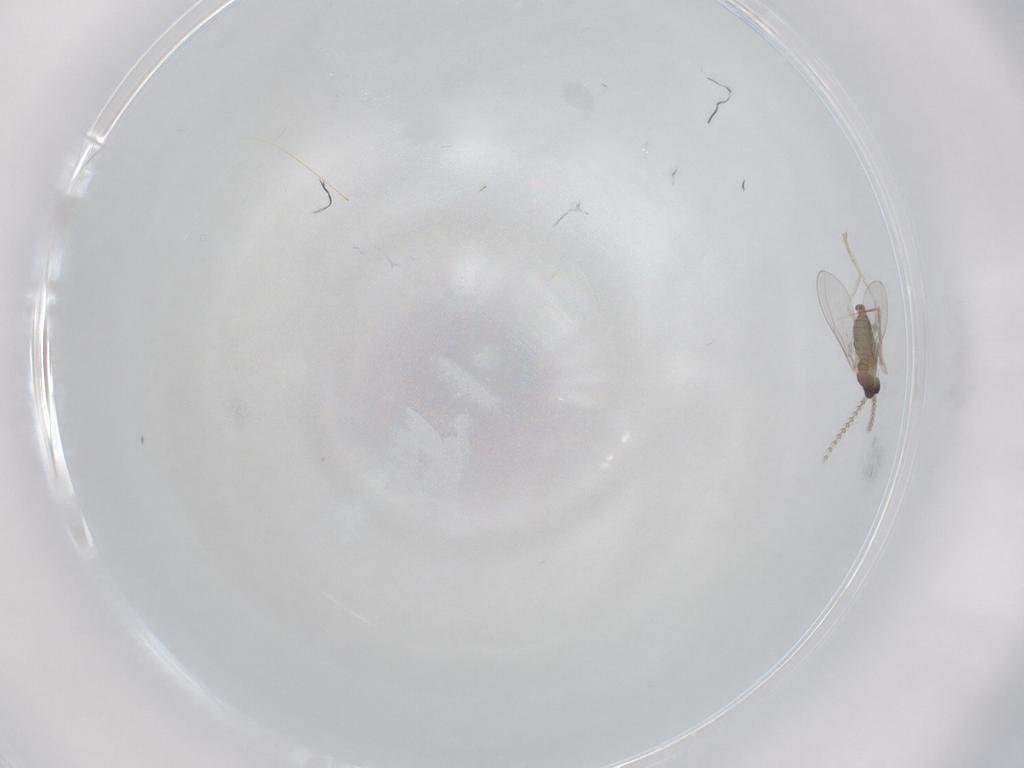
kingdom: Animalia
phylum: Arthropoda
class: Insecta
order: Diptera
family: Cecidomyiidae
